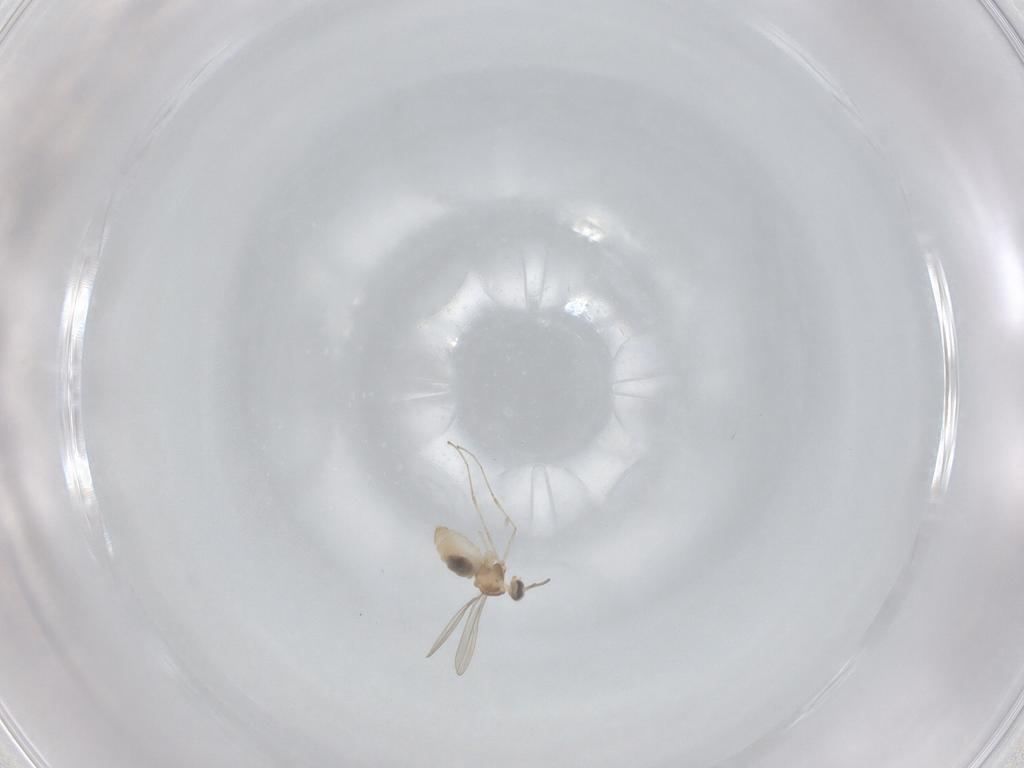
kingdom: Animalia
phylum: Arthropoda
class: Insecta
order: Diptera
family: Cecidomyiidae
